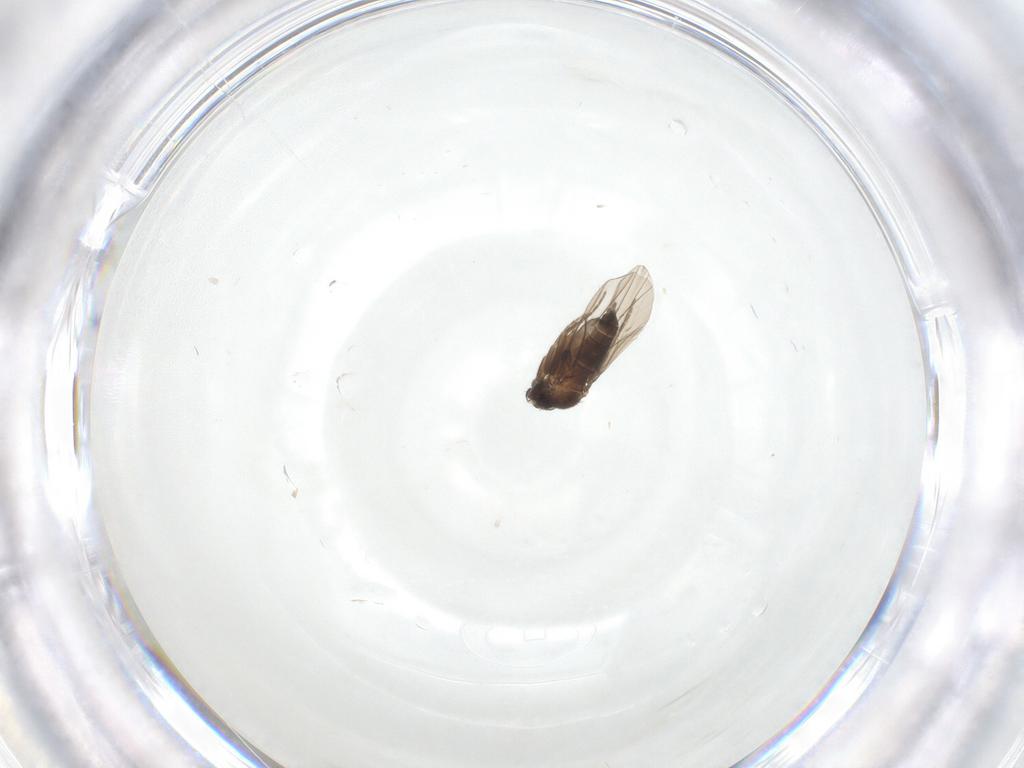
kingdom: Animalia
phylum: Arthropoda
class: Insecta
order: Diptera
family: Phoridae
